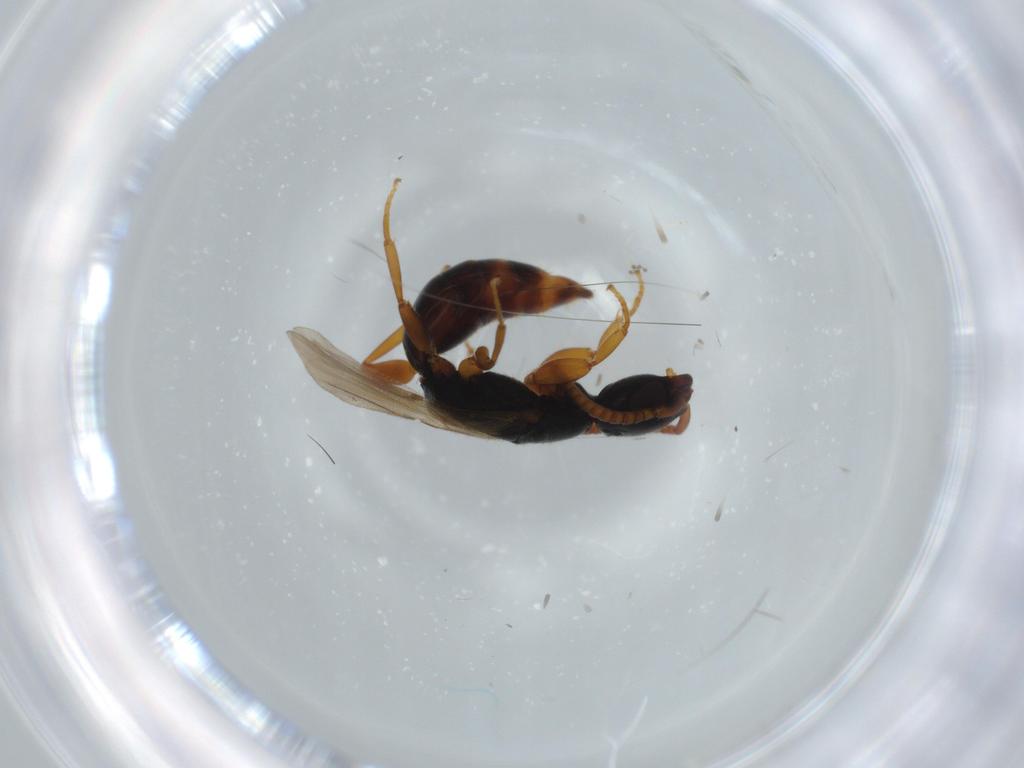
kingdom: Animalia
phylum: Arthropoda
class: Insecta
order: Hymenoptera
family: Bethylidae
